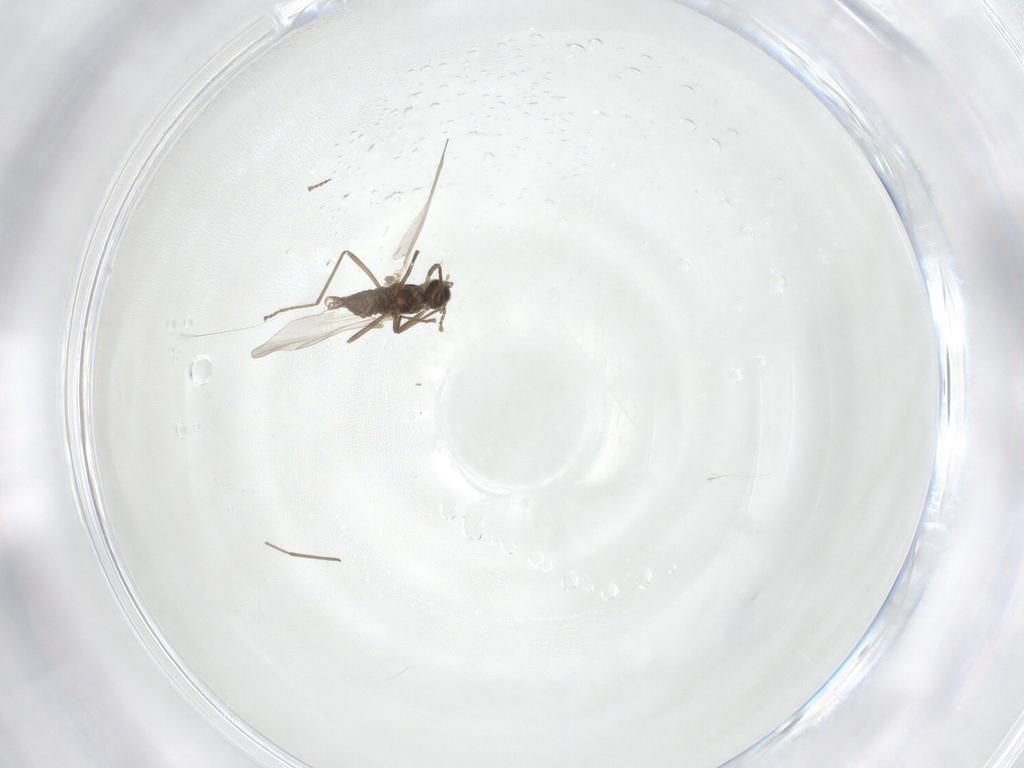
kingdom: Animalia
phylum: Arthropoda
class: Insecta
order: Diptera
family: Cecidomyiidae
